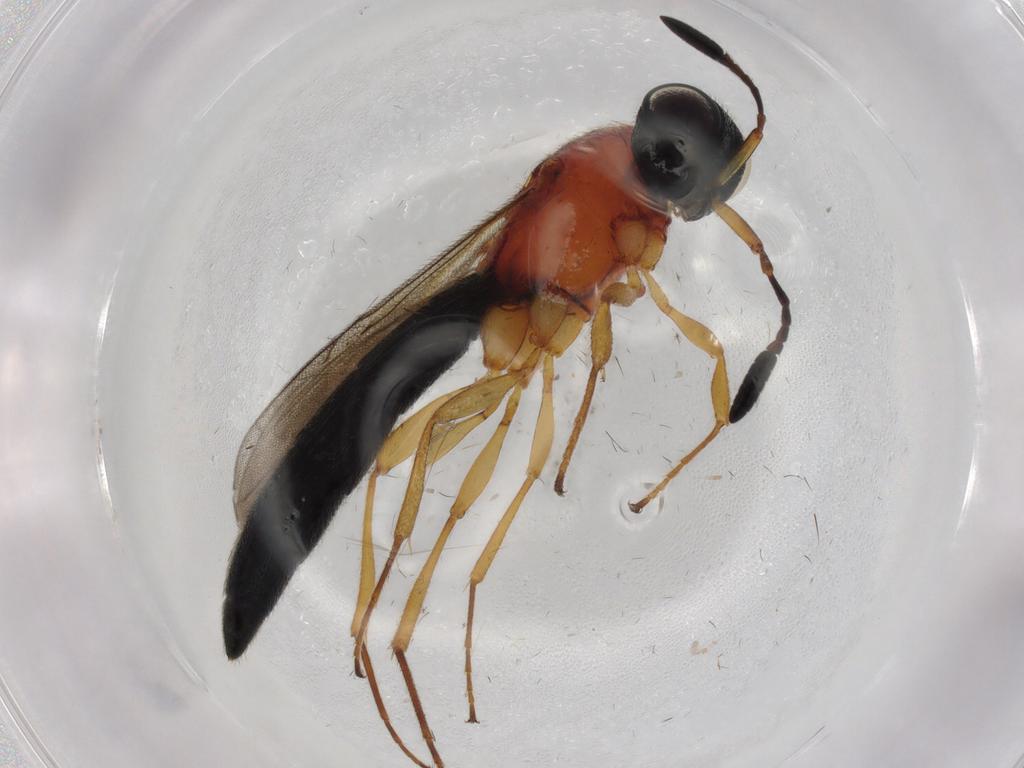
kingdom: Animalia
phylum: Arthropoda
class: Insecta
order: Hymenoptera
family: Scelionidae
